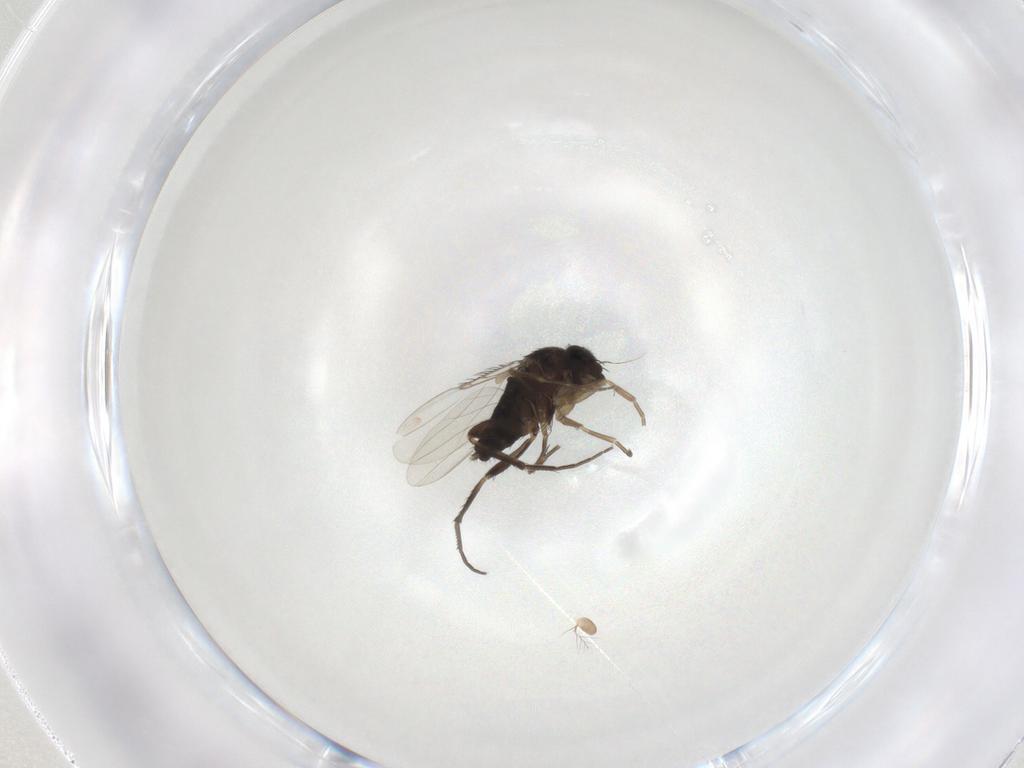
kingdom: Animalia
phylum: Arthropoda
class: Insecta
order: Diptera
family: Phoridae
